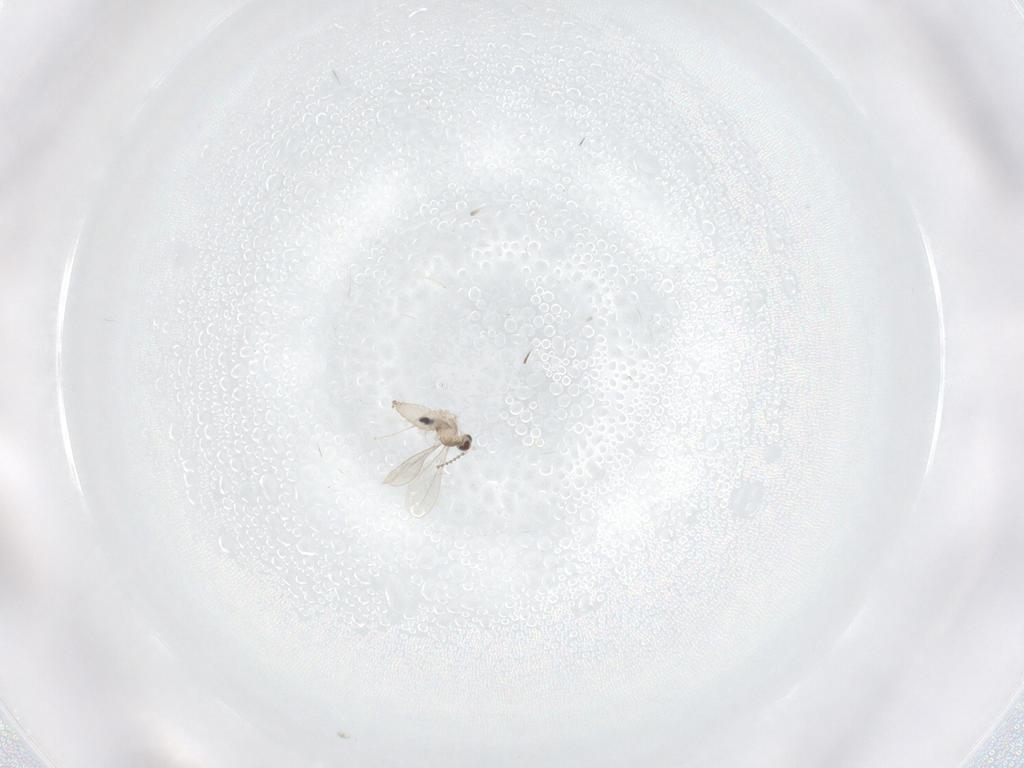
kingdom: Animalia
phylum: Arthropoda
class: Insecta
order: Diptera
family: Cecidomyiidae
